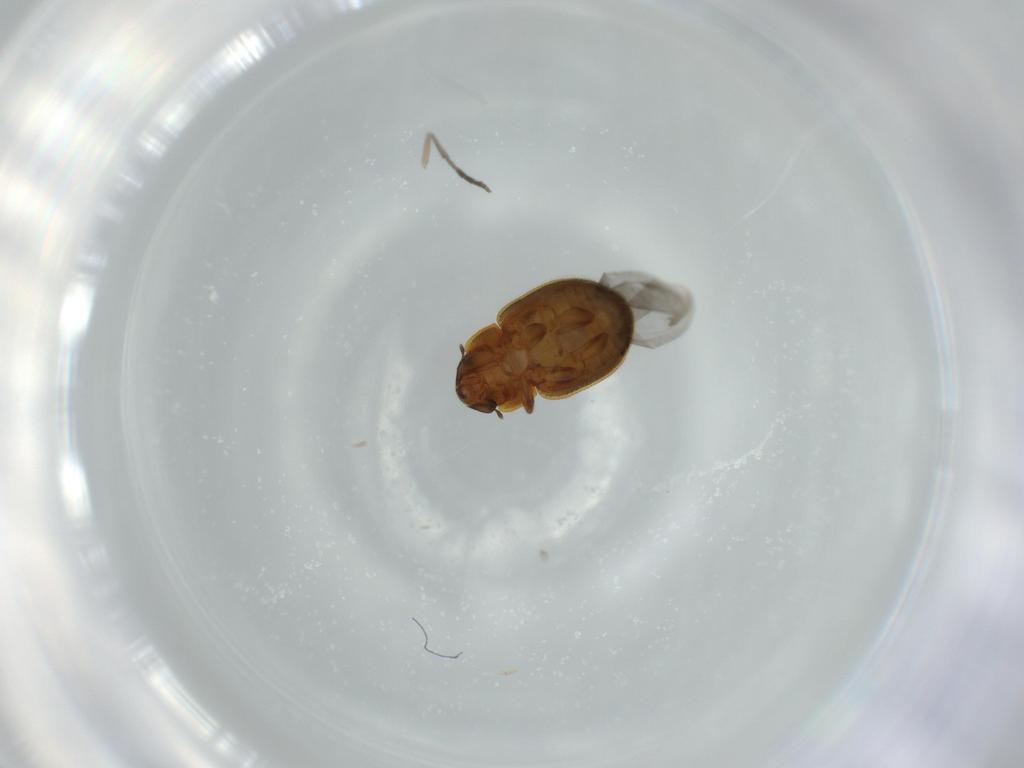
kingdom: Animalia
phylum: Arthropoda
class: Insecta
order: Coleoptera
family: Coccinellidae
